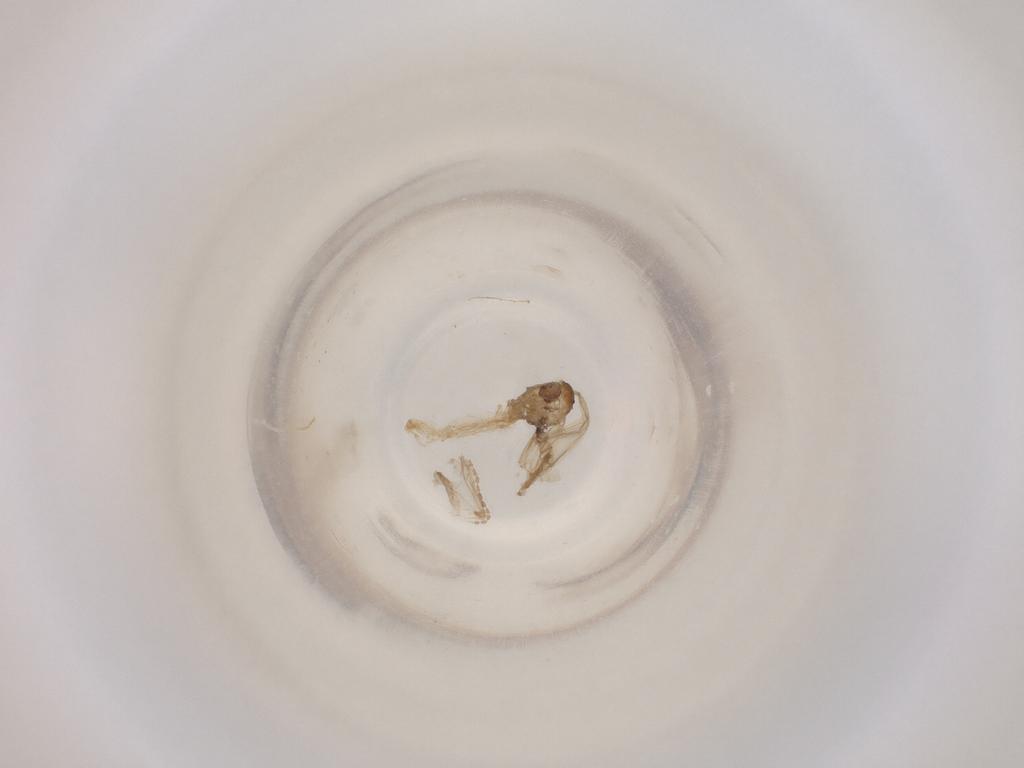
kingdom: Animalia
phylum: Arthropoda
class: Insecta
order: Diptera
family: Cecidomyiidae
